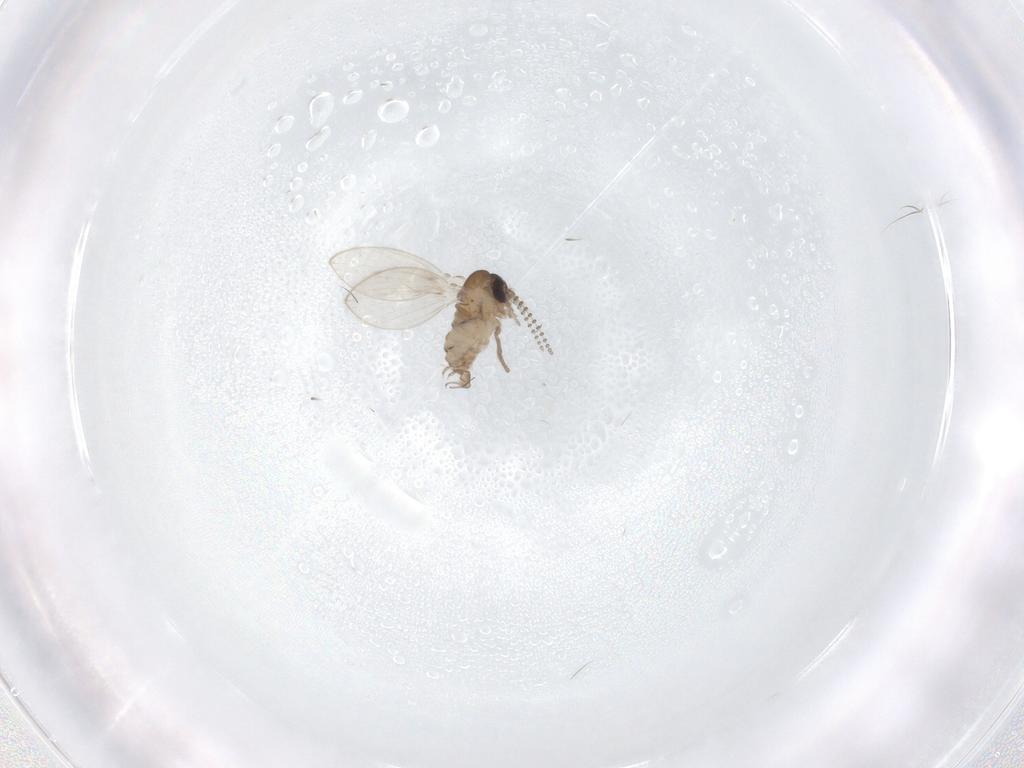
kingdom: Animalia
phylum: Arthropoda
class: Insecta
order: Diptera
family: Psychodidae
